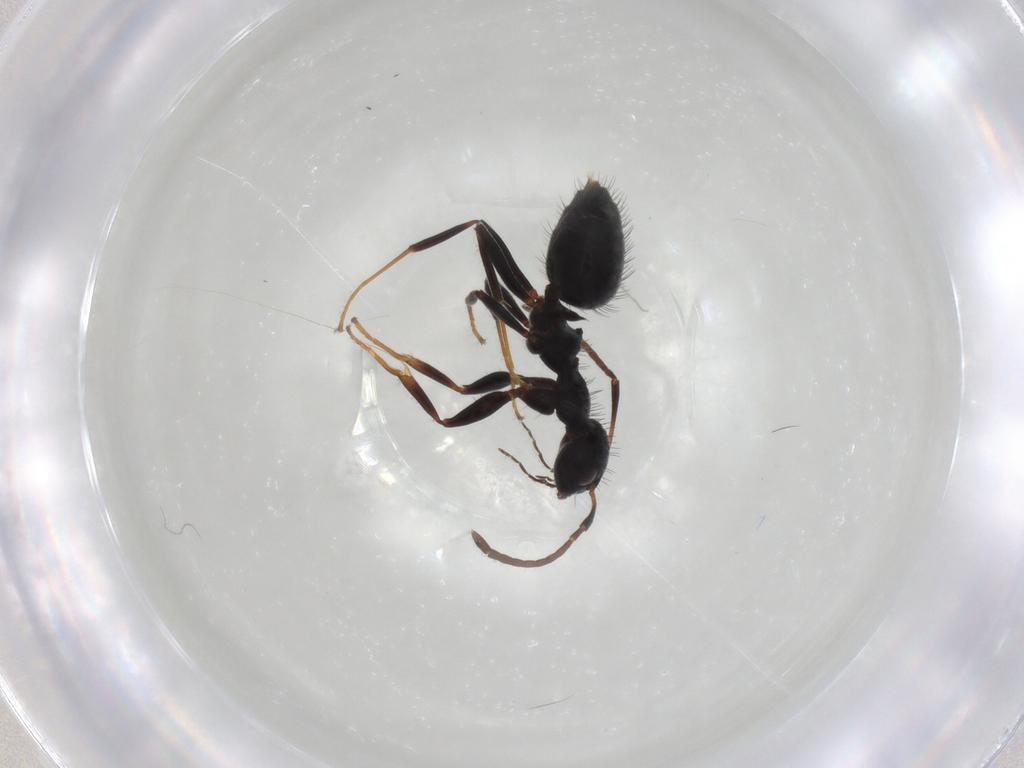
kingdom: Animalia
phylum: Arthropoda
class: Insecta
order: Hymenoptera
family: Formicidae
